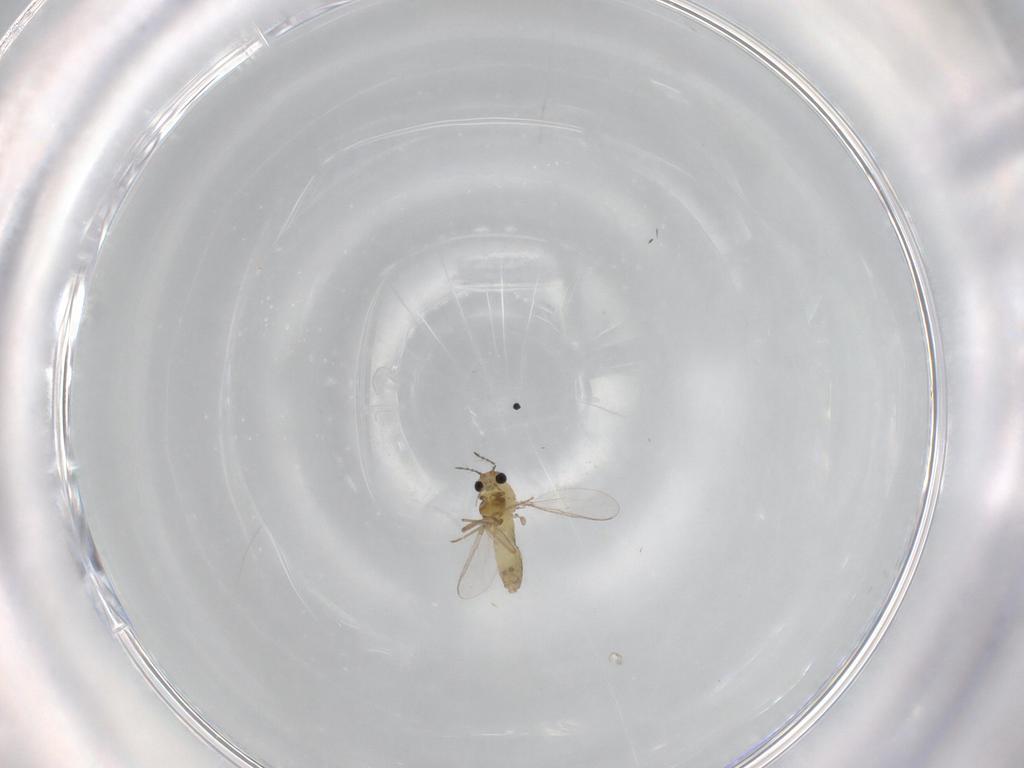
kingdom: Animalia
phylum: Arthropoda
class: Insecta
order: Diptera
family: Chironomidae
